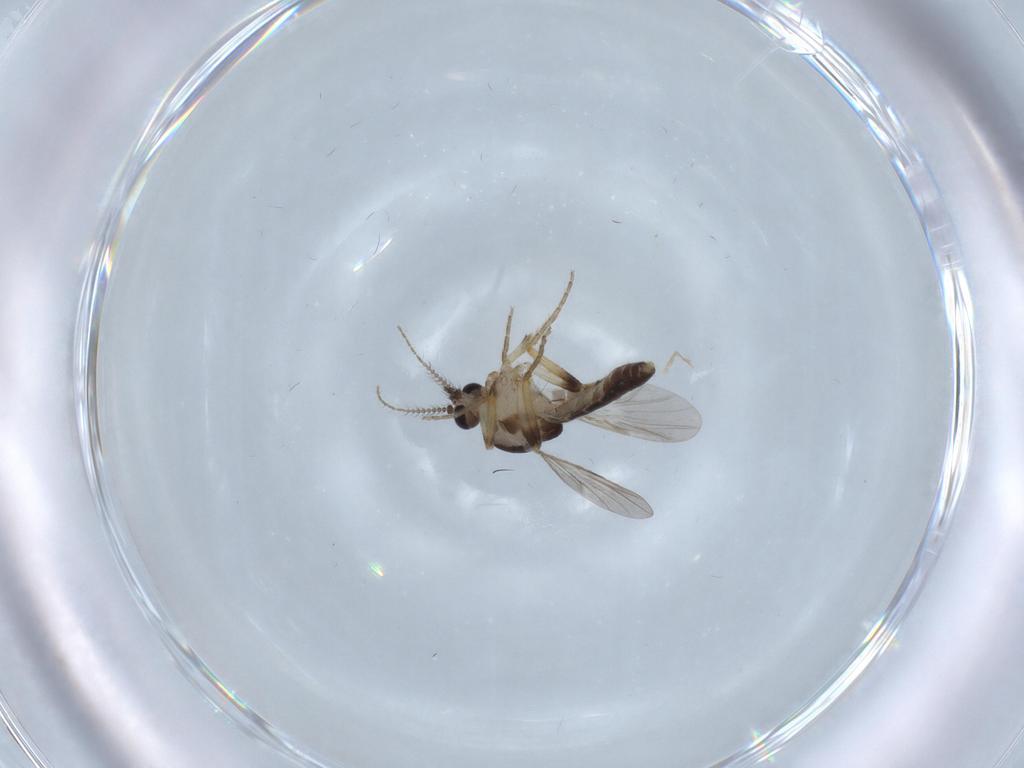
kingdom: Animalia
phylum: Arthropoda
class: Insecta
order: Diptera
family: Ceratopogonidae
